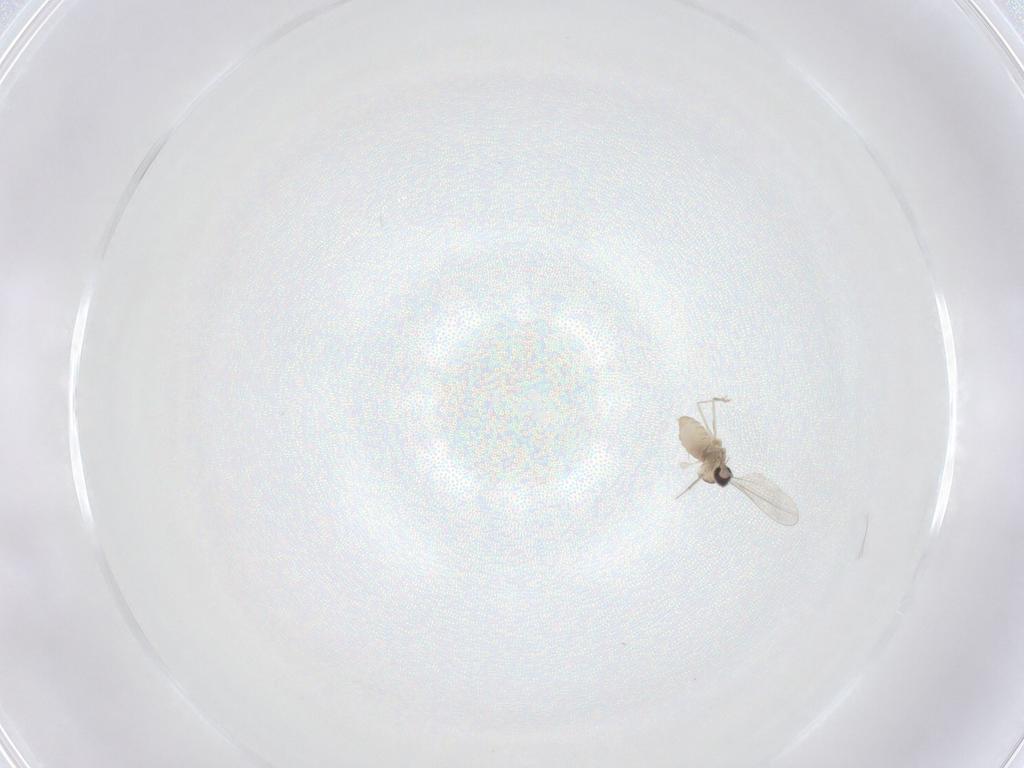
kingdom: Animalia
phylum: Arthropoda
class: Insecta
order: Diptera
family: Cecidomyiidae
